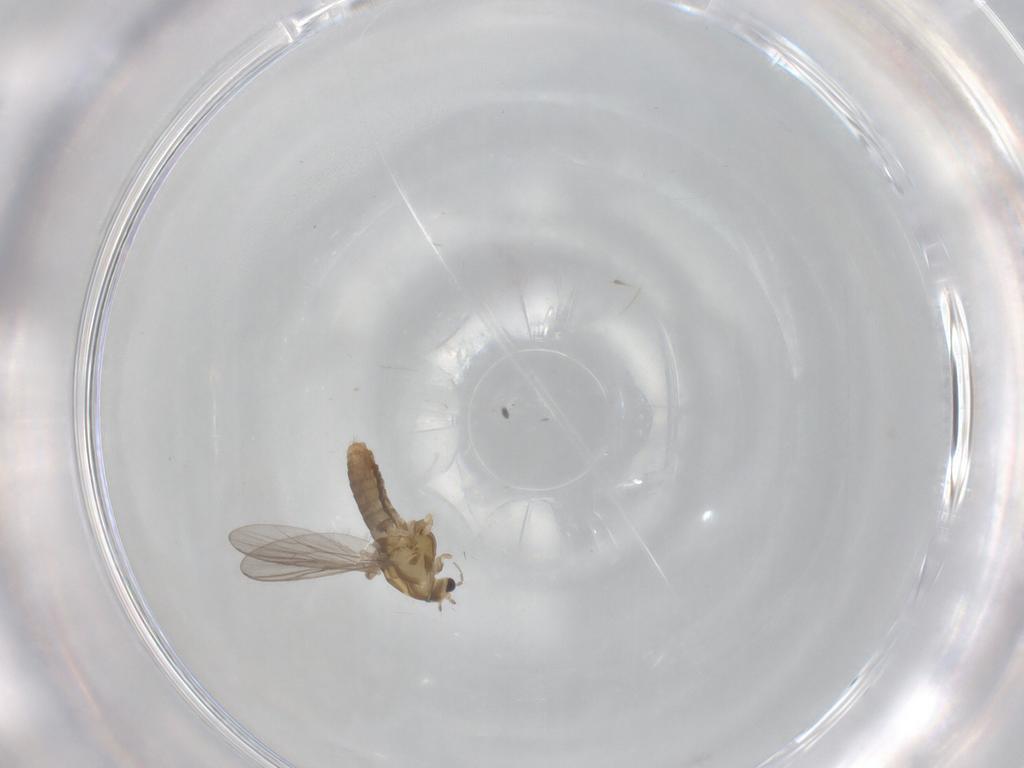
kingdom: Animalia
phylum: Arthropoda
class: Insecta
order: Diptera
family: Chironomidae
